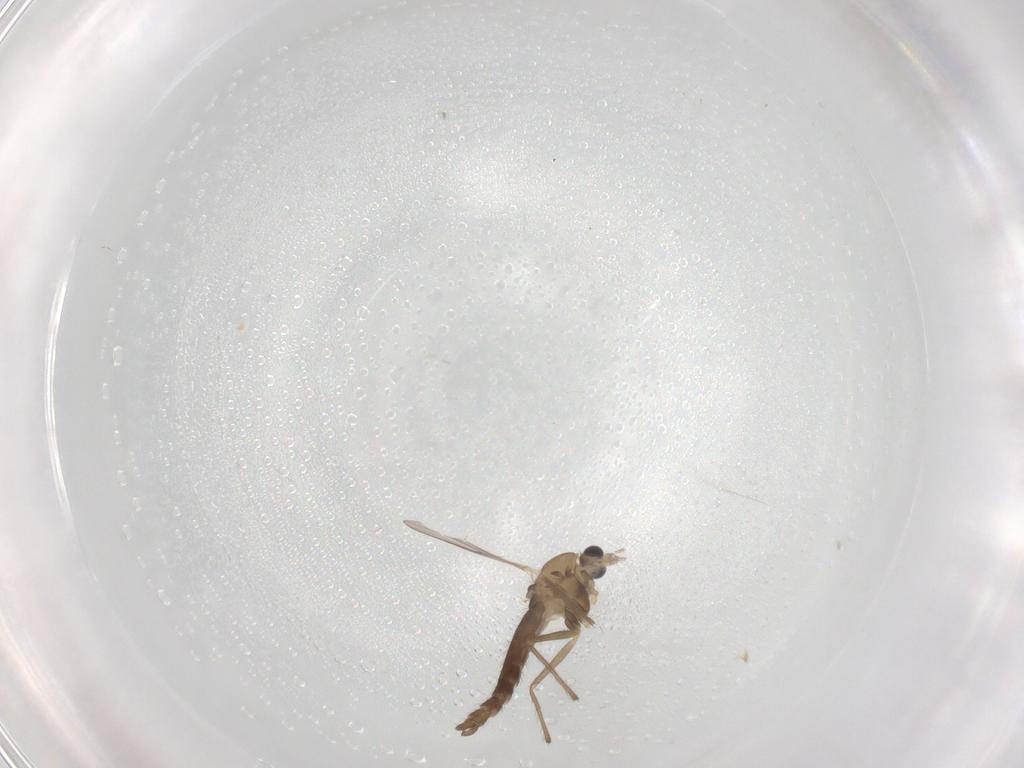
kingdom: Animalia
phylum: Arthropoda
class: Insecta
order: Diptera
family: Chironomidae
